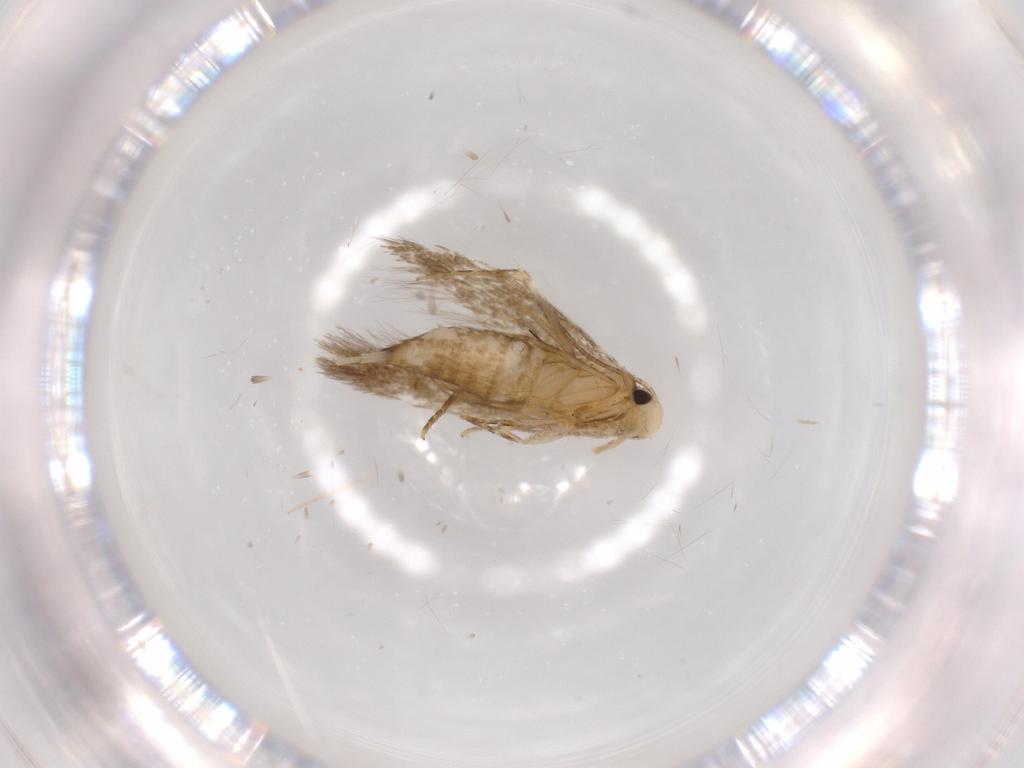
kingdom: Animalia
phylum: Arthropoda
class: Insecta
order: Lepidoptera
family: Tineidae
